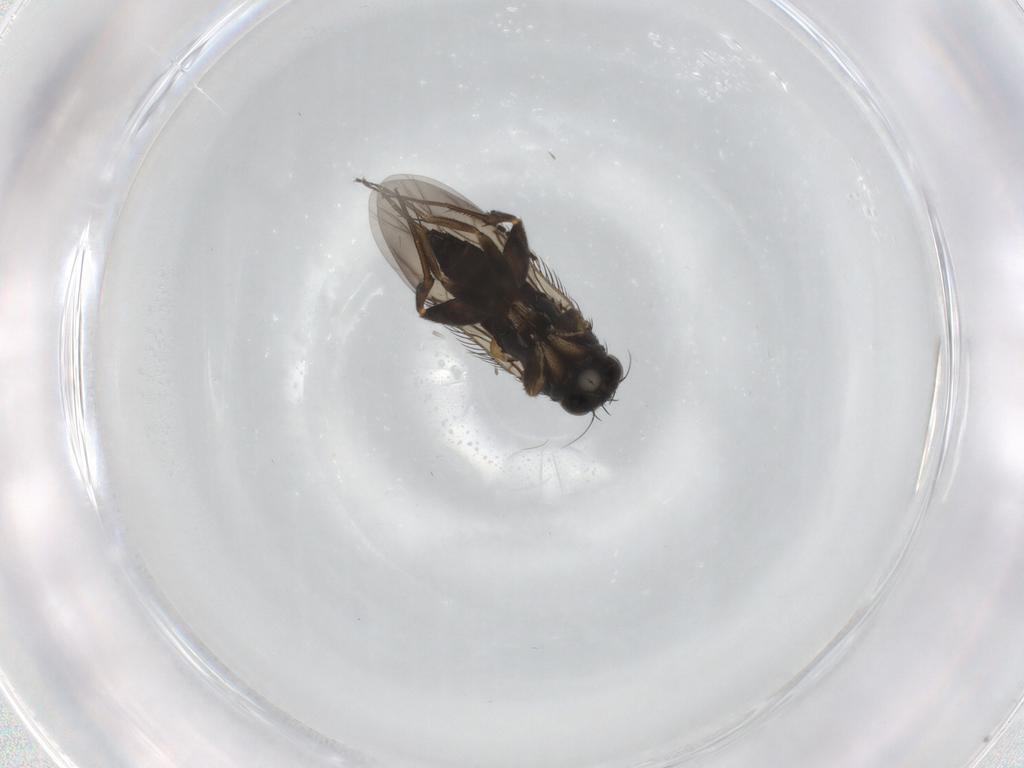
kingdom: Animalia
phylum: Arthropoda
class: Insecta
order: Diptera
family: Phoridae
